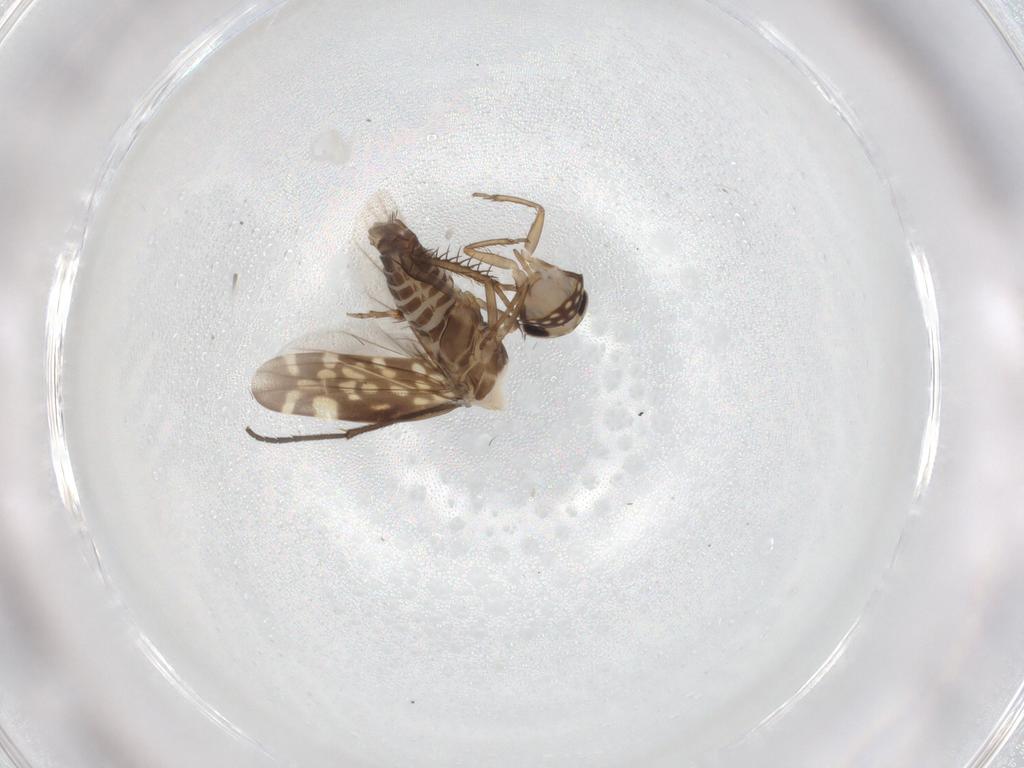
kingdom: Animalia
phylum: Arthropoda
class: Insecta
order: Hemiptera
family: Cicadellidae
